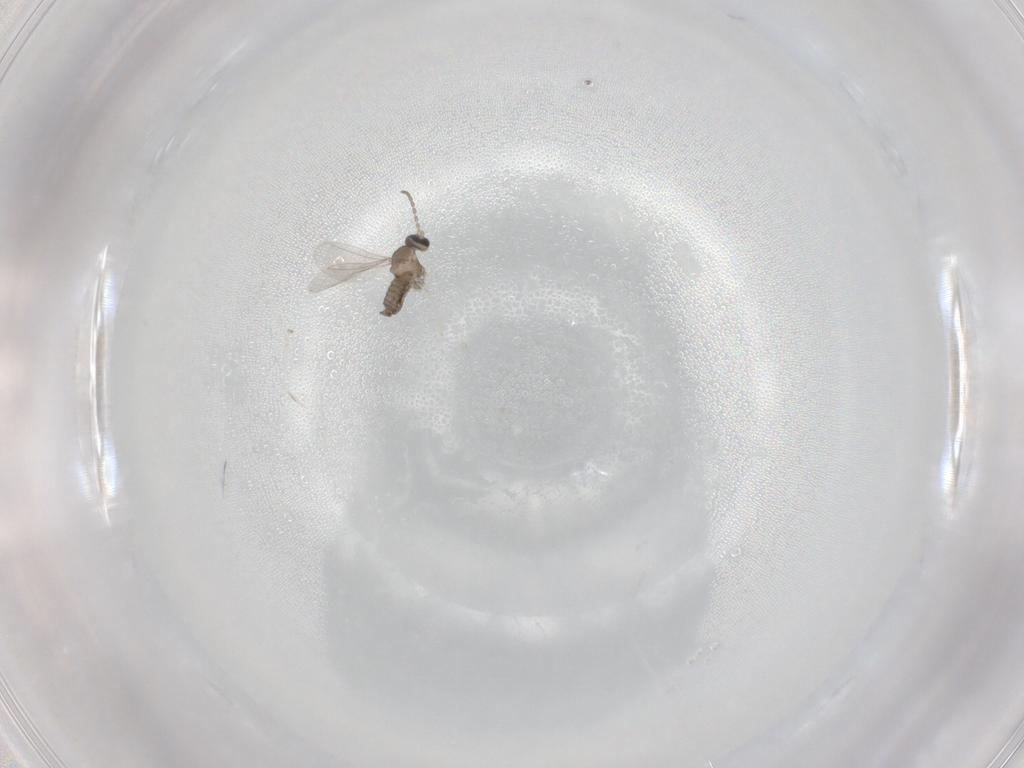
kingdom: Animalia
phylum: Arthropoda
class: Insecta
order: Diptera
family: Cecidomyiidae
